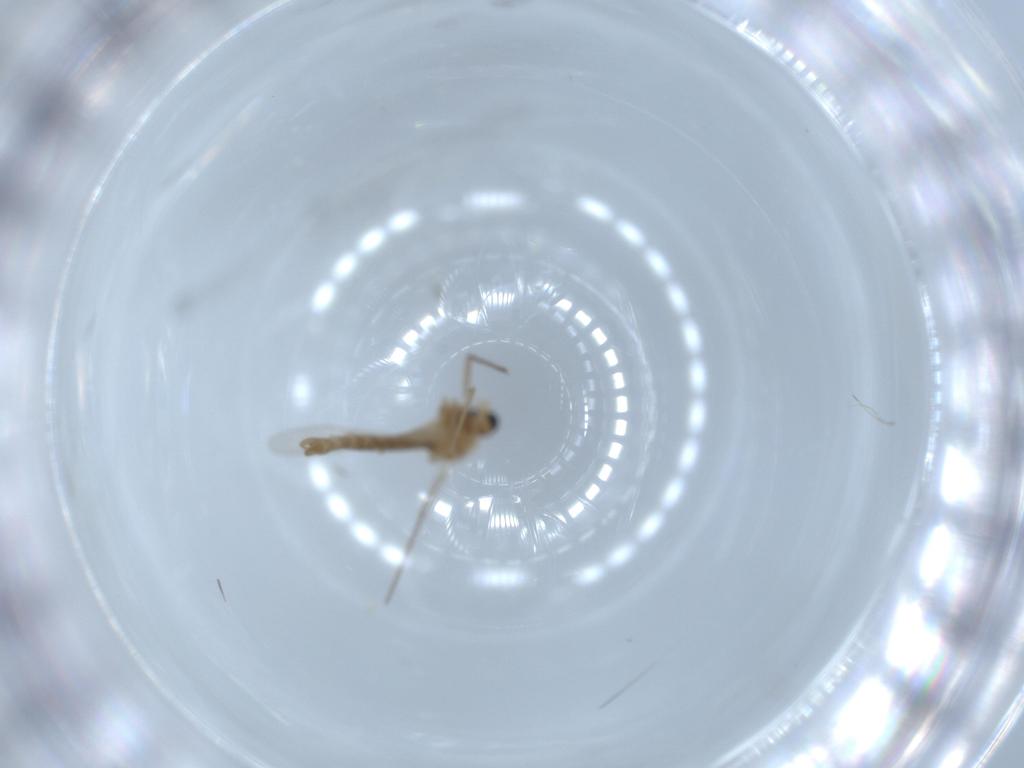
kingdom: Animalia
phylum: Arthropoda
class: Insecta
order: Diptera
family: Chironomidae
